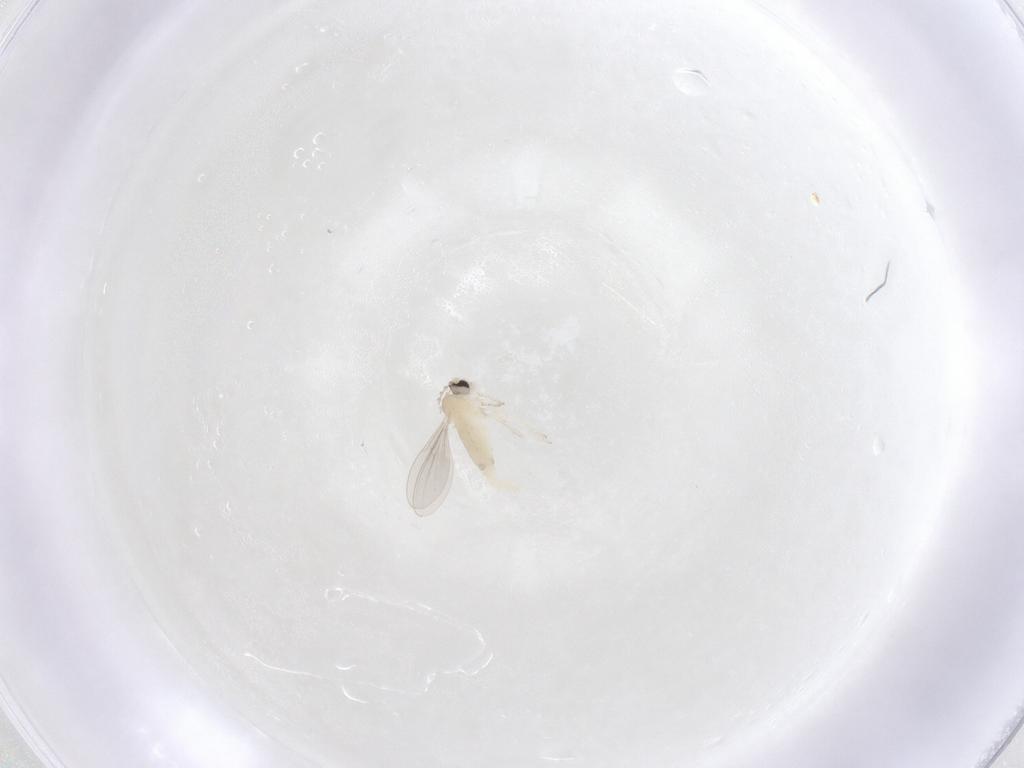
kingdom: Animalia
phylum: Arthropoda
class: Insecta
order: Diptera
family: Cecidomyiidae
